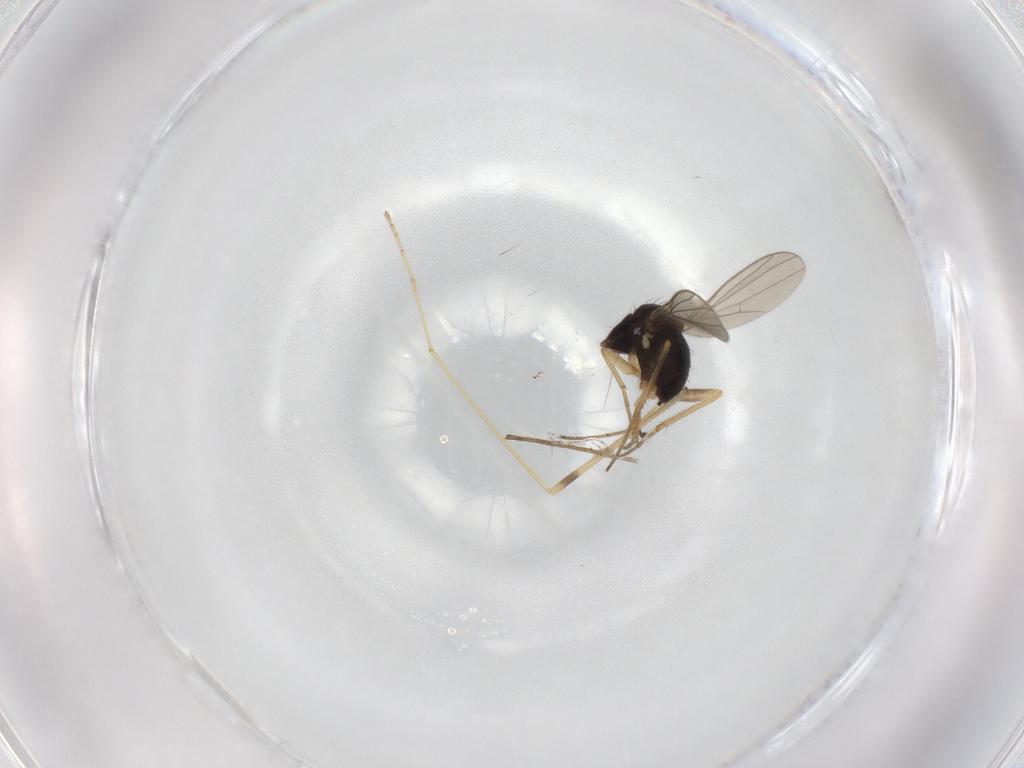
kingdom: Animalia
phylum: Arthropoda
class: Insecta
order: Diptera
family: Dolichopodidae
